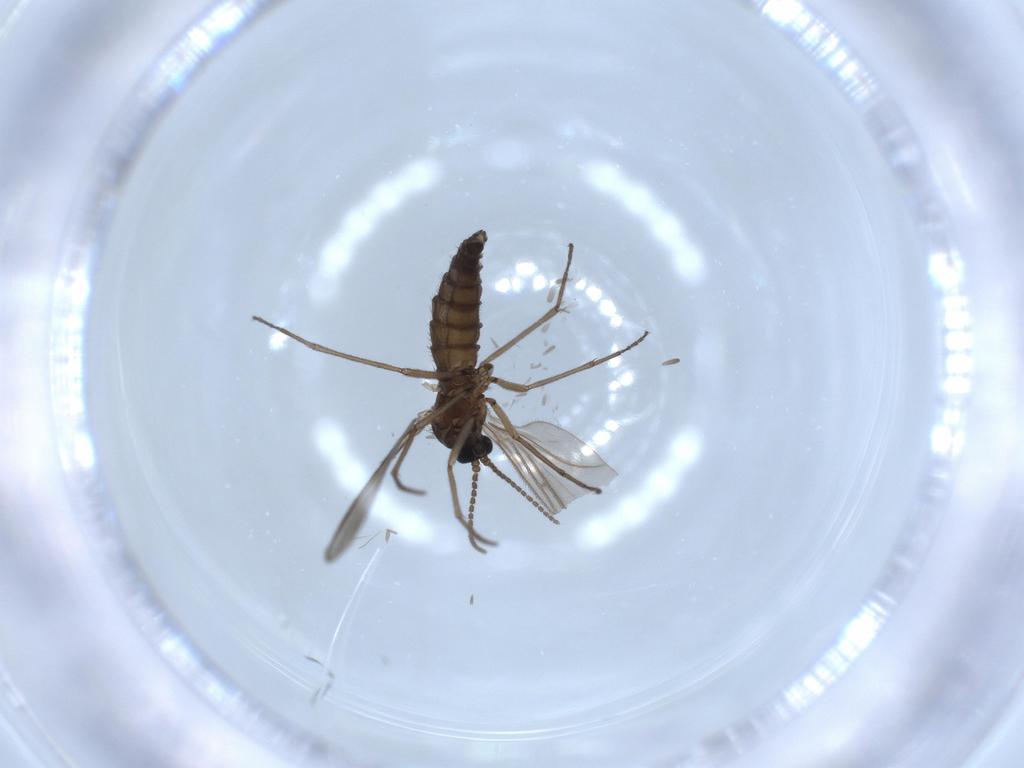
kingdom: Animalia
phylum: Arthropoda
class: Insecta
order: Diptera
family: Sciaridae
